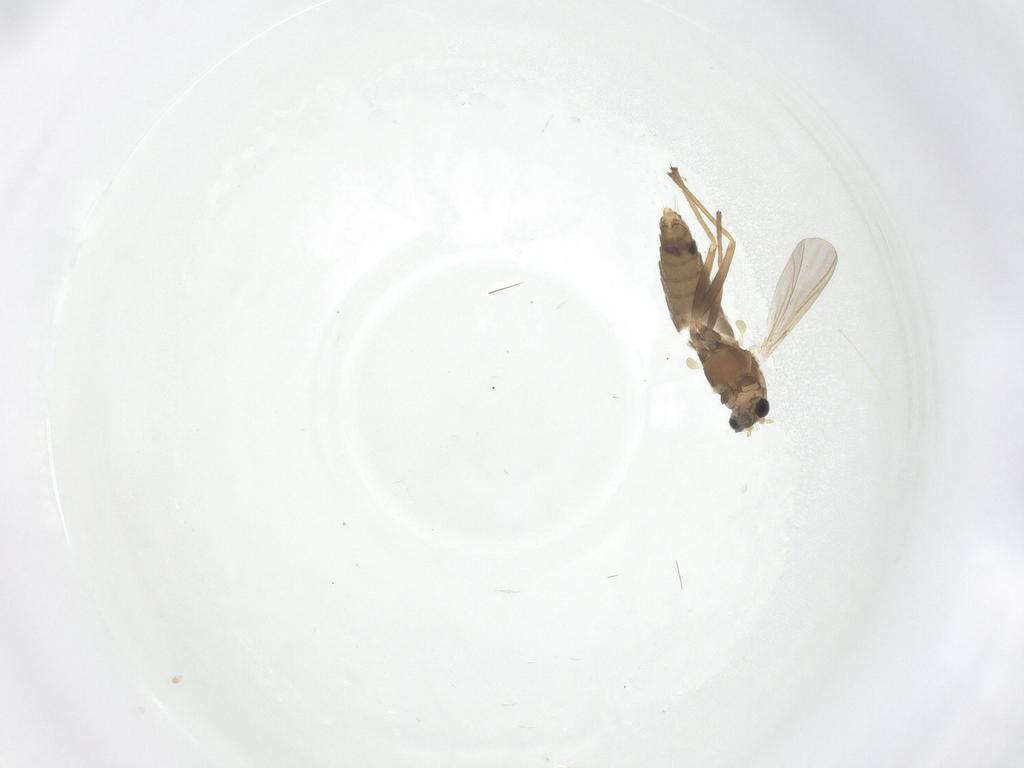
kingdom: Animalia
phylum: Arthropoda
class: Insecta
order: Diptera
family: Chironomidae
